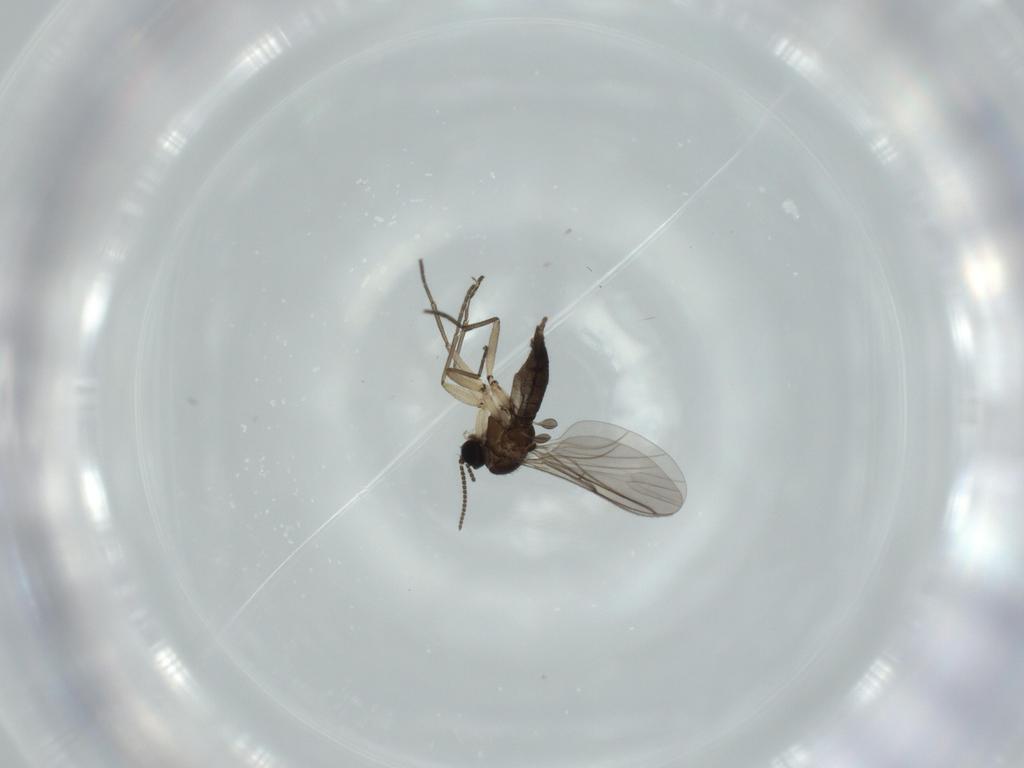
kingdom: Animalia
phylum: Arthropoda
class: Insecta
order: Diptera
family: Sciaridae
